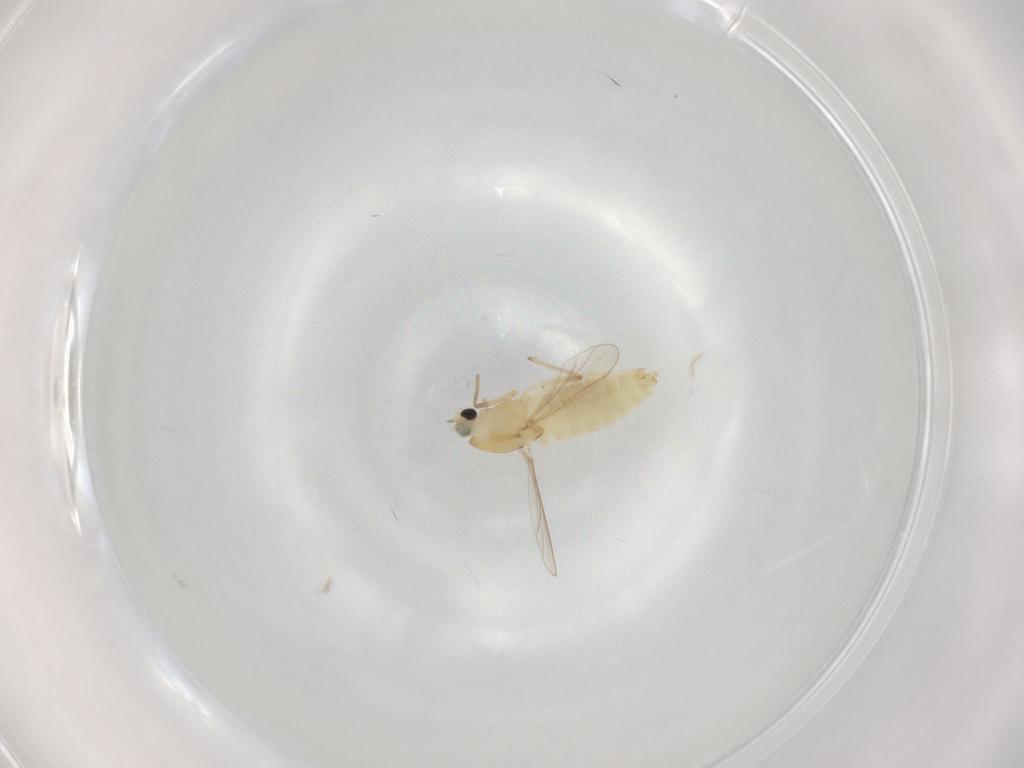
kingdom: Animalia
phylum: Arthropoda
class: Insecta
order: Diptera
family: Chironomidae
